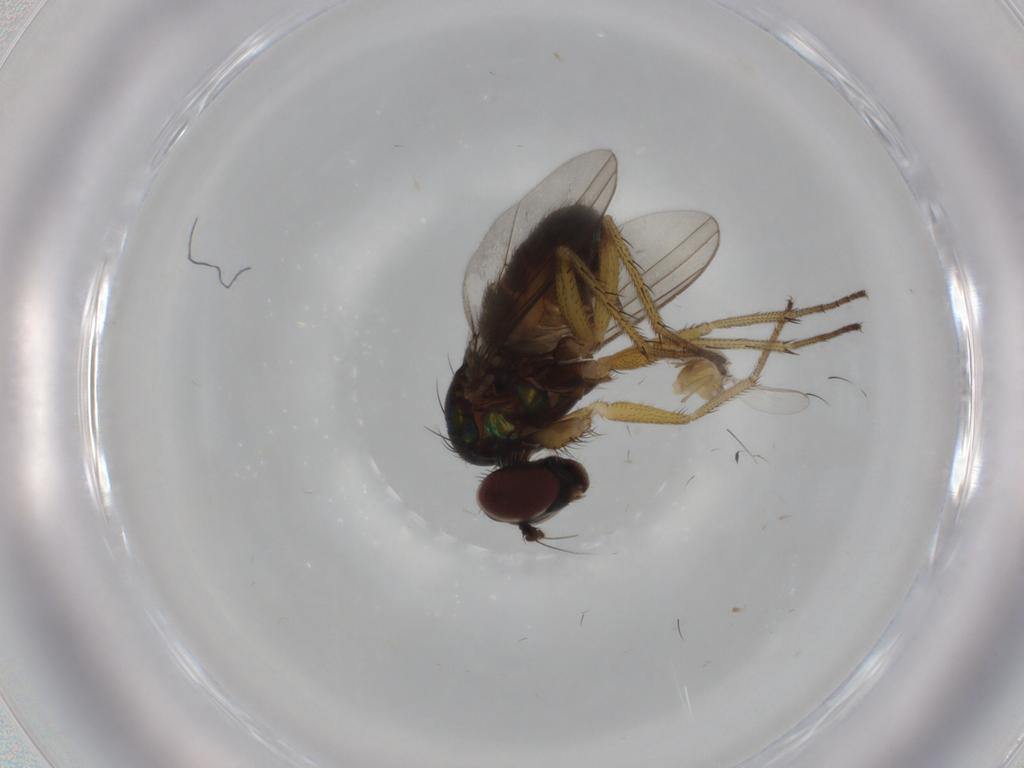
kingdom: Animalia
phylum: Arthropoda
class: Insecta
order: Diptera
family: Dolichopodidae
